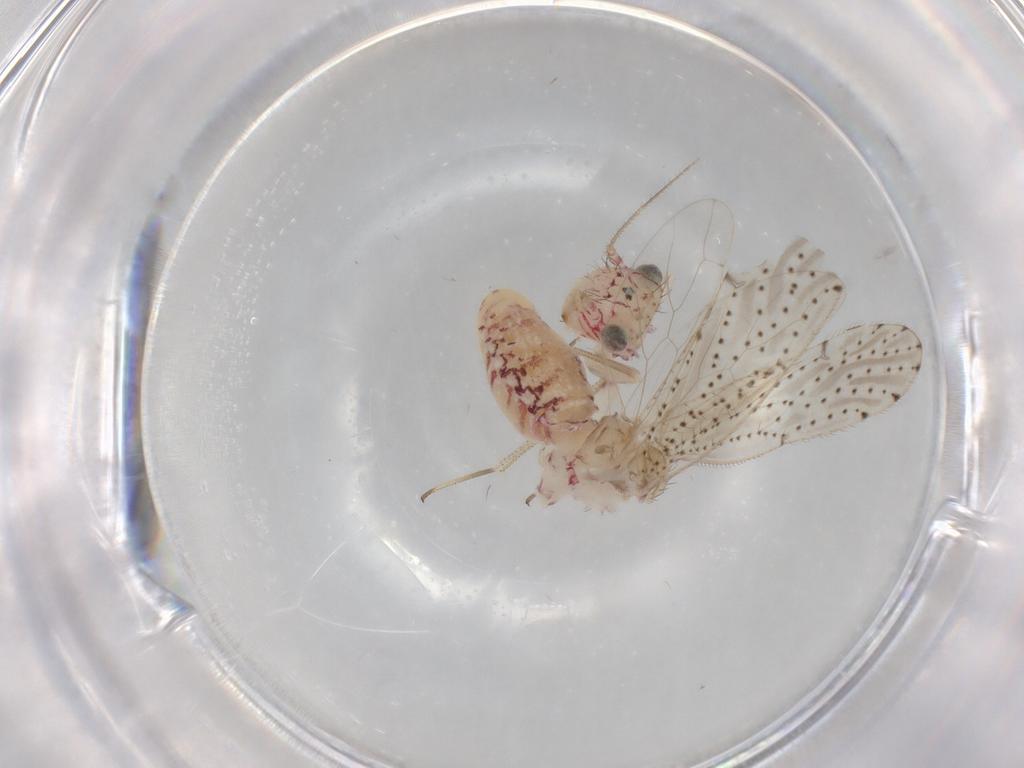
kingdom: Animalia
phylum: Arthropoda
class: Insecta
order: Psocodea
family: Philotarsidae
